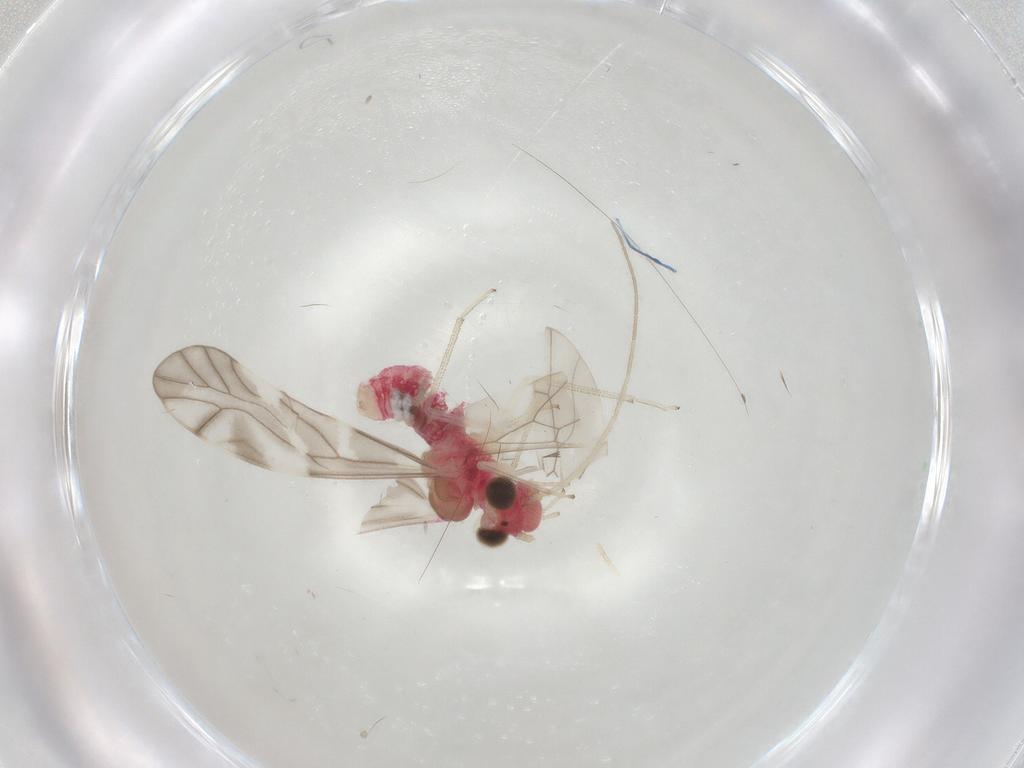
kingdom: Animalia
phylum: Arthropoda
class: Insecta
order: Psocodea
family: Caeciliusidae
